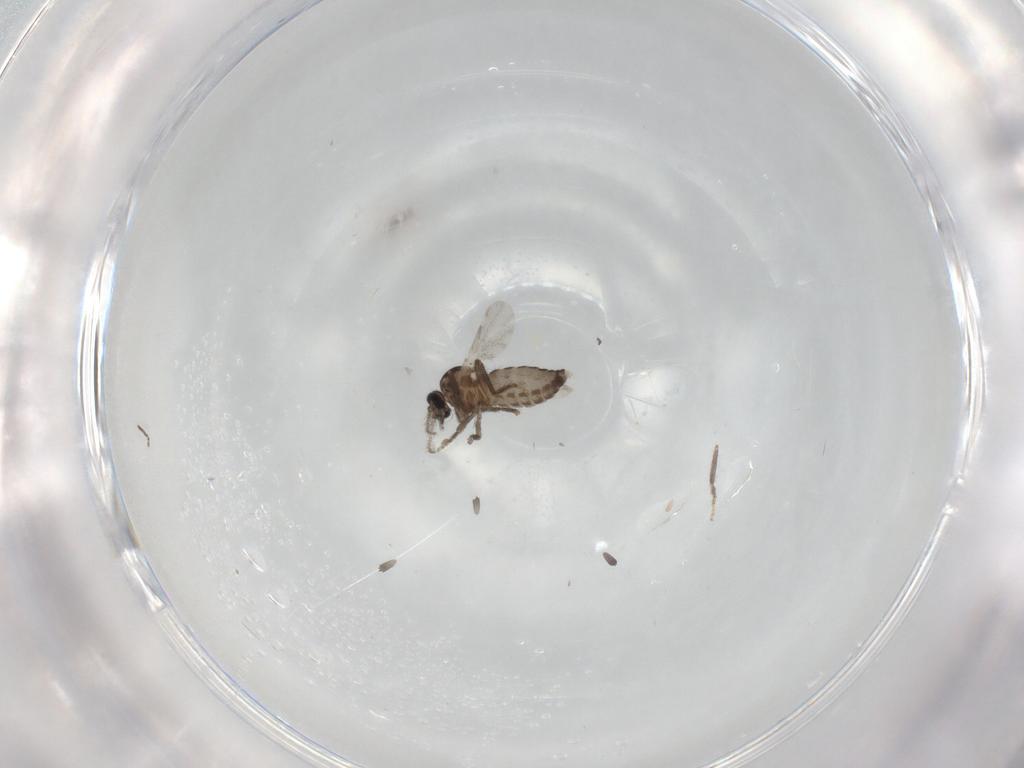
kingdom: Animalia
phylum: Arthropoda
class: Insecta
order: Diptera
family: Ceratopogonidae
